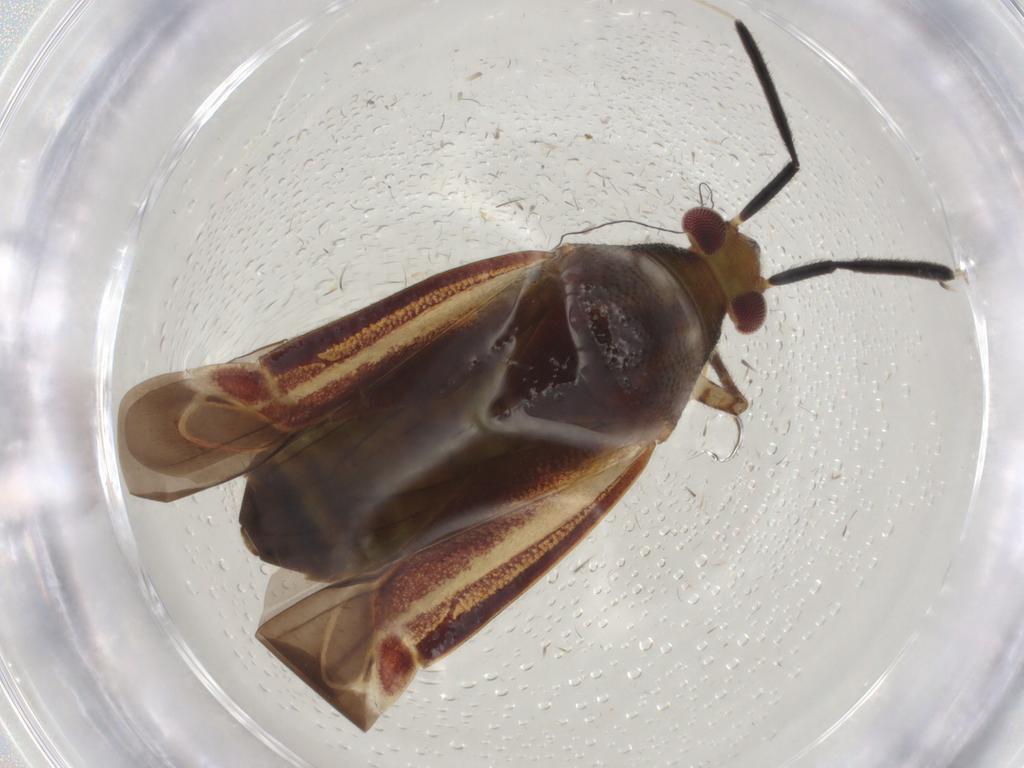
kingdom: Animalia
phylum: Arthropoda
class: Insecta
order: Hemiptera
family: Miridae
